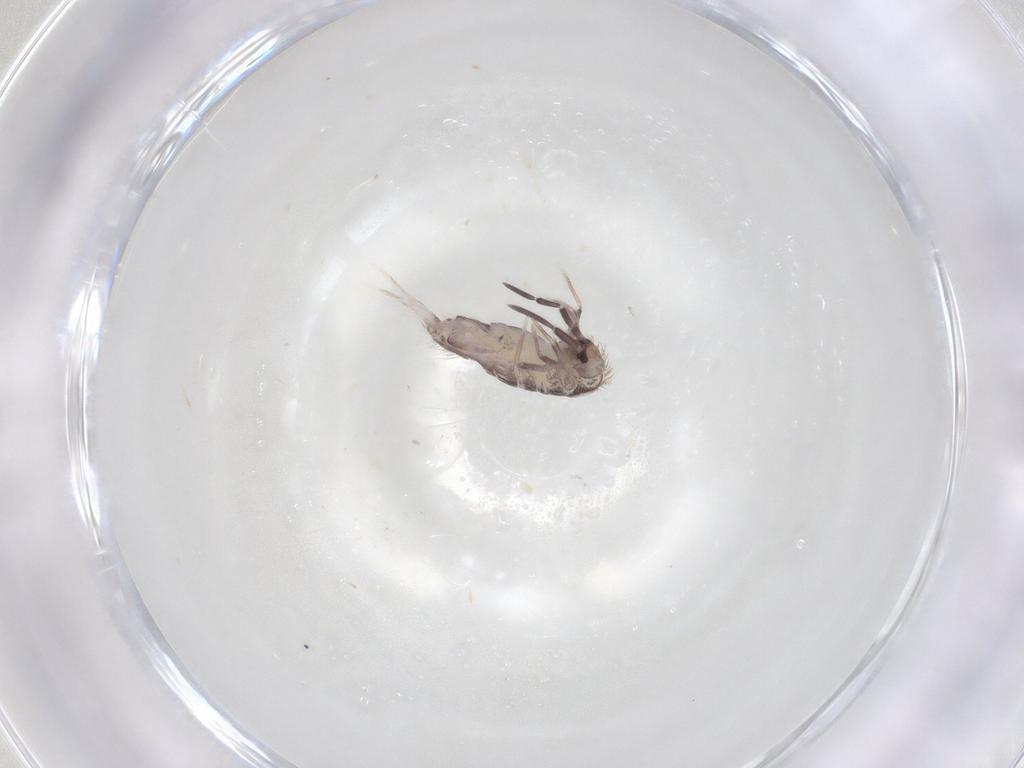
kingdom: Animalia
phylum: Arthropoda
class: Collembola
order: Poduromorpha
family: Hypogastruridae
